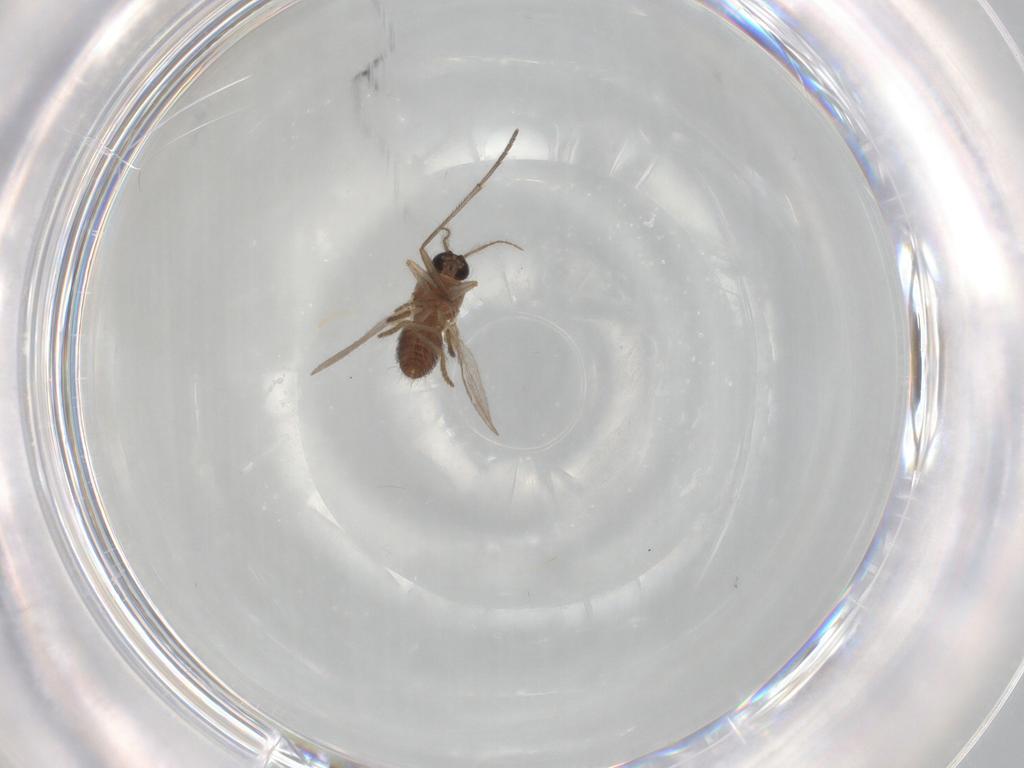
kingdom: Animalia
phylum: Arthropoda
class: Insecta
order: Diptera
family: Ceratopogonidae
